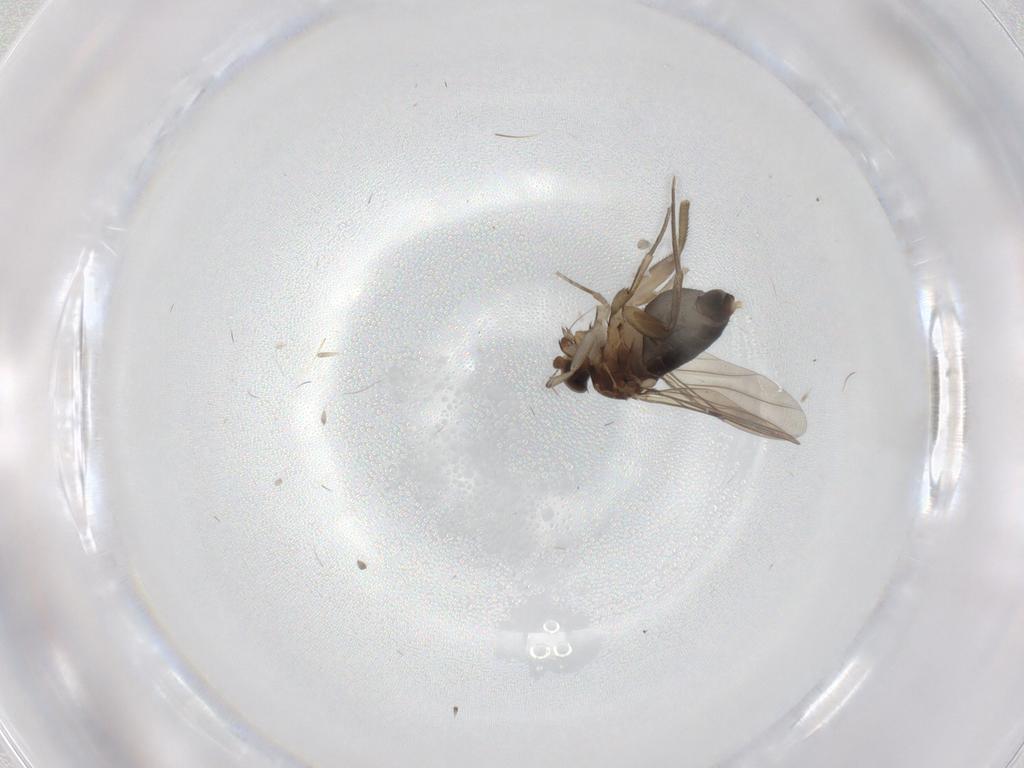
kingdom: Animalia
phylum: Arthropoda
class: Insecta
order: Diptera
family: Phoridae
